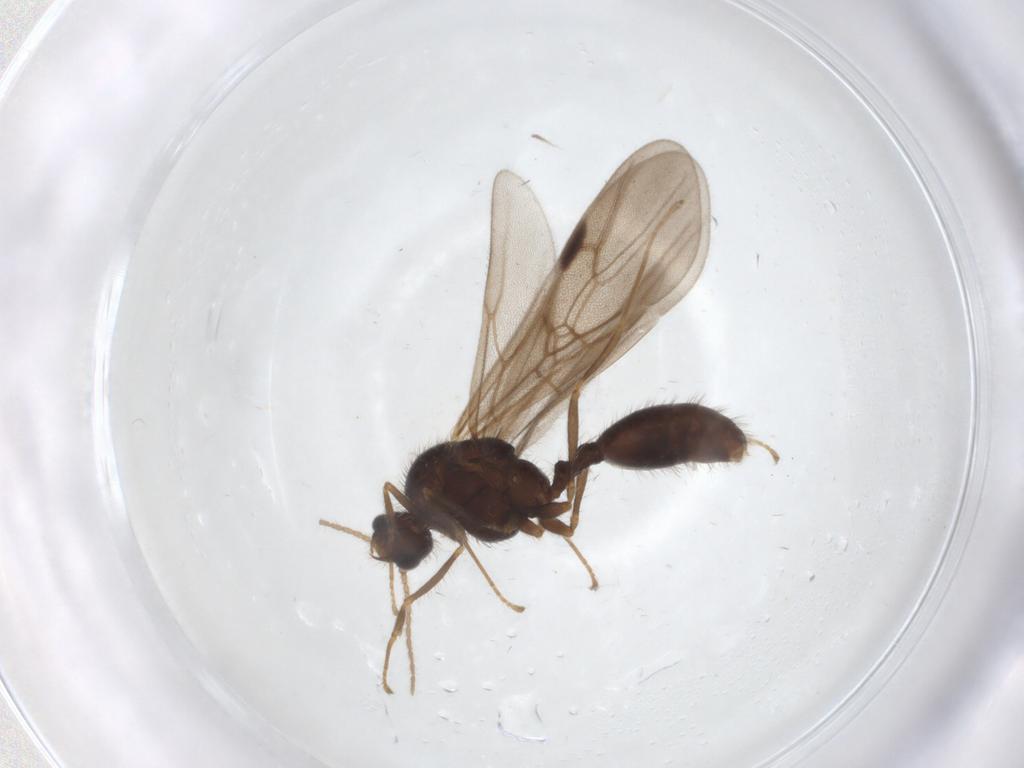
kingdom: Animalia
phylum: Arthropoda
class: Insecta
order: Hymenoptera
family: Formicidae
